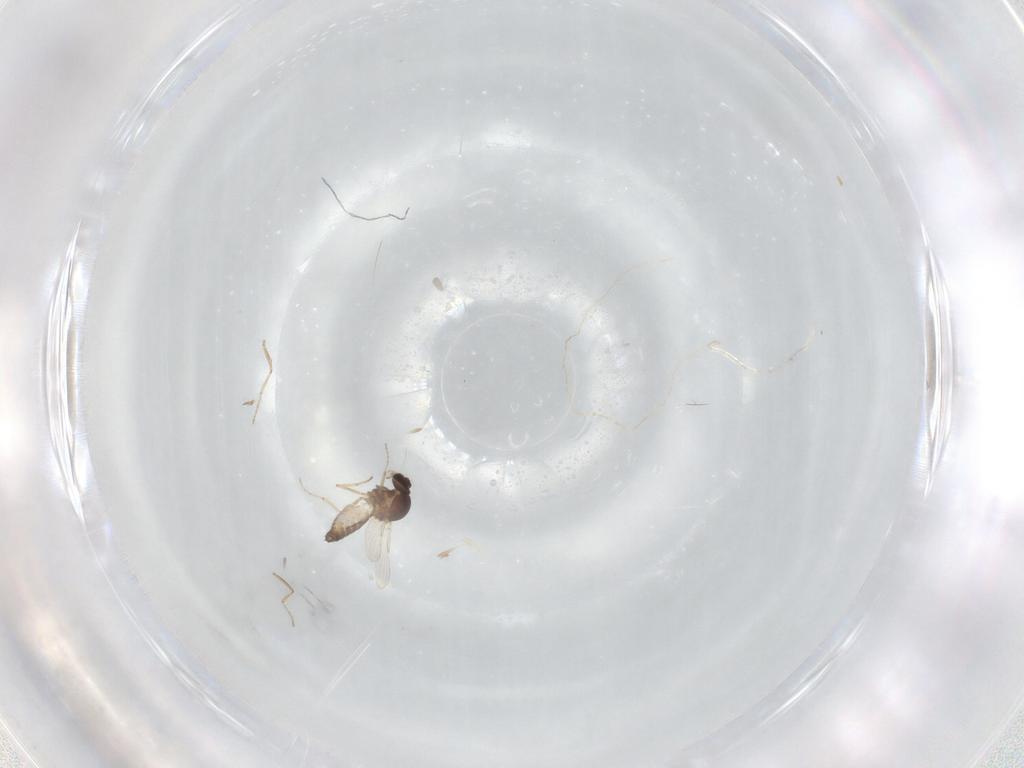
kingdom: Animalia
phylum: Arthropoda
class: Insecta
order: Diptera
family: Ceratopogonidae
